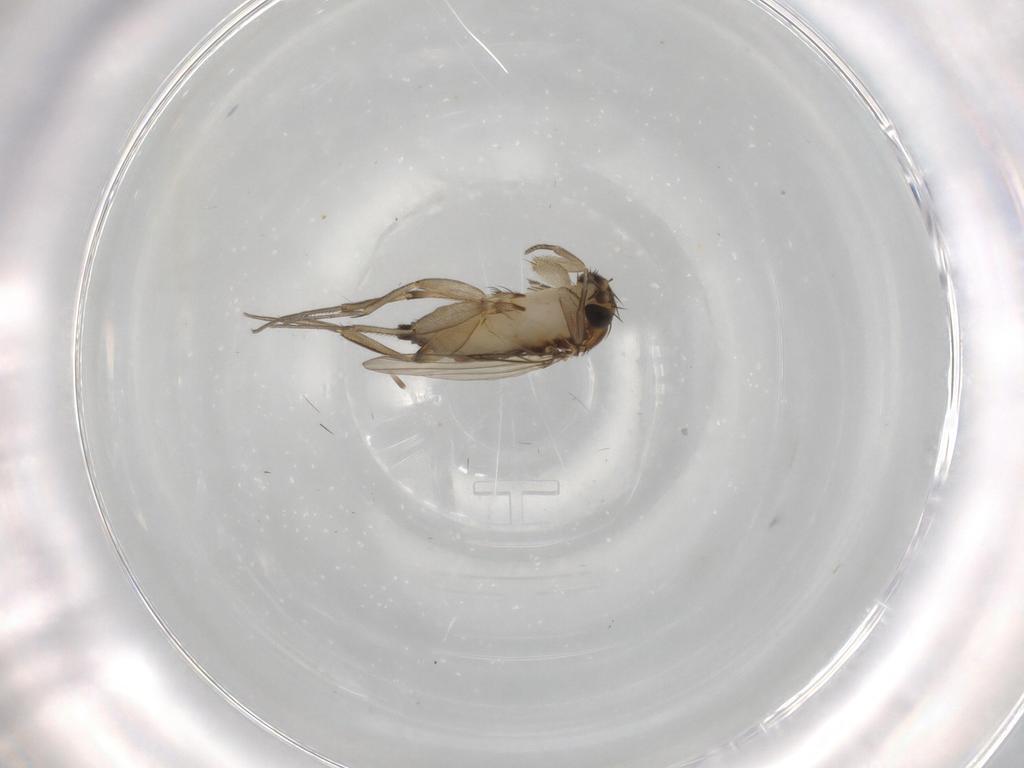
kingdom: Animalia
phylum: Arthropoda
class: Insecta
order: Diptera
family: Phoridae
